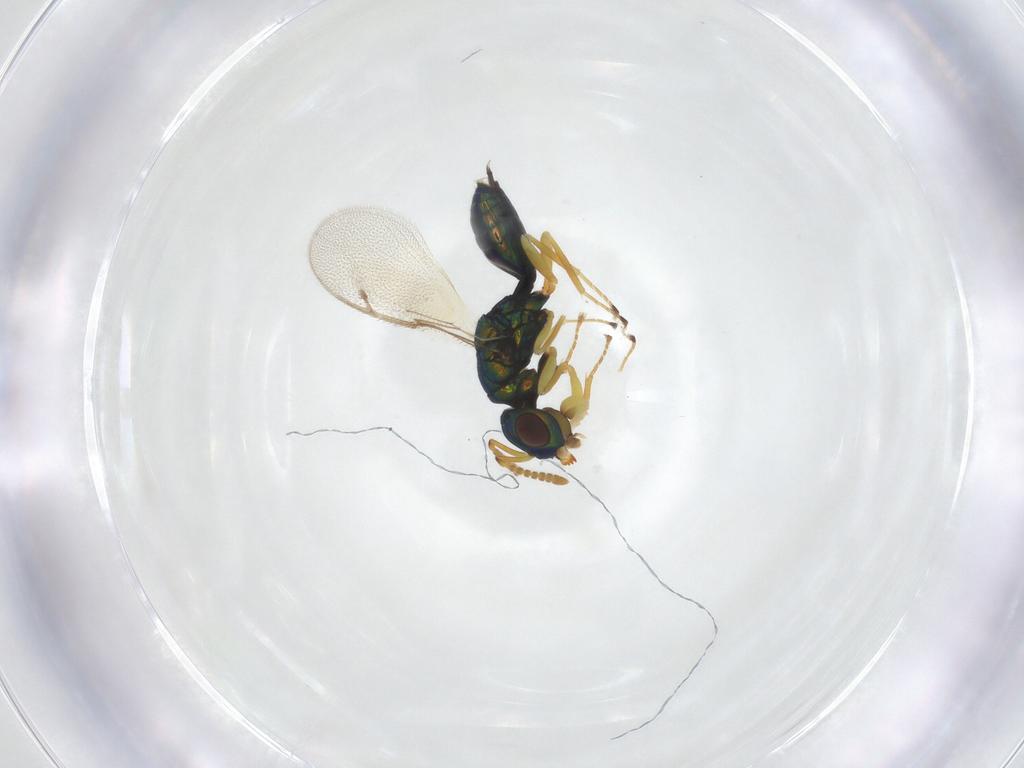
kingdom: Animalia
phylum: Arthropoda
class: Insecta
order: Hymenoptera
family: Pteromalidae
